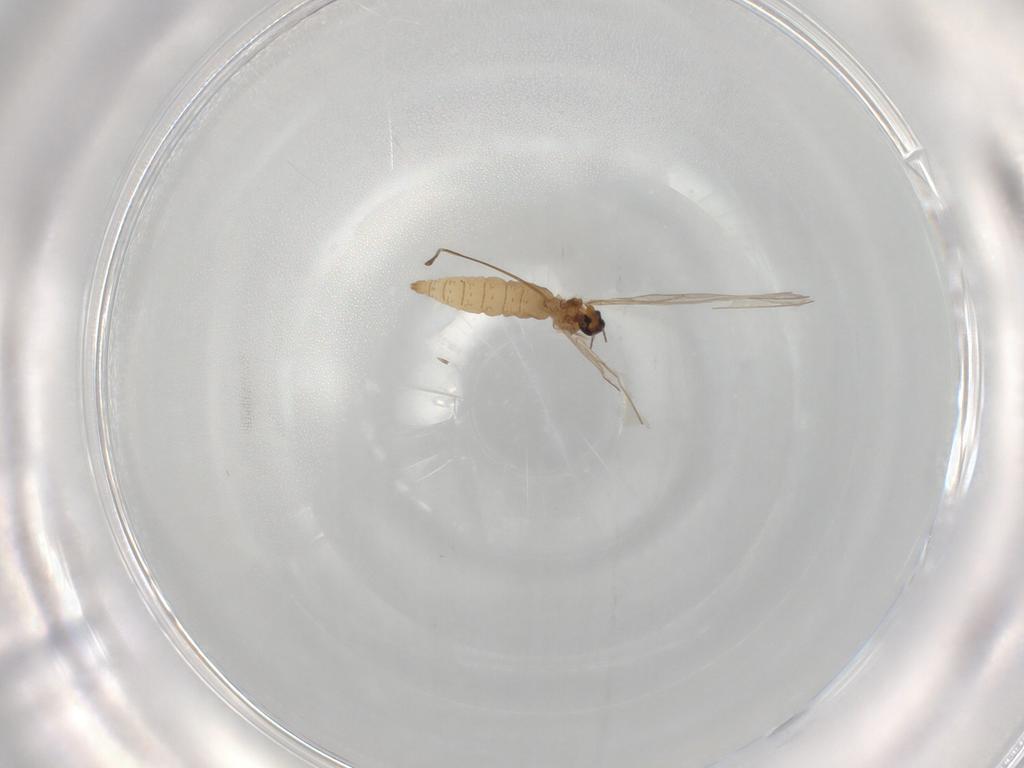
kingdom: Animalia
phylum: Arthropoda
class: Insecta
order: Diptera
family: Cecidomyiidae
